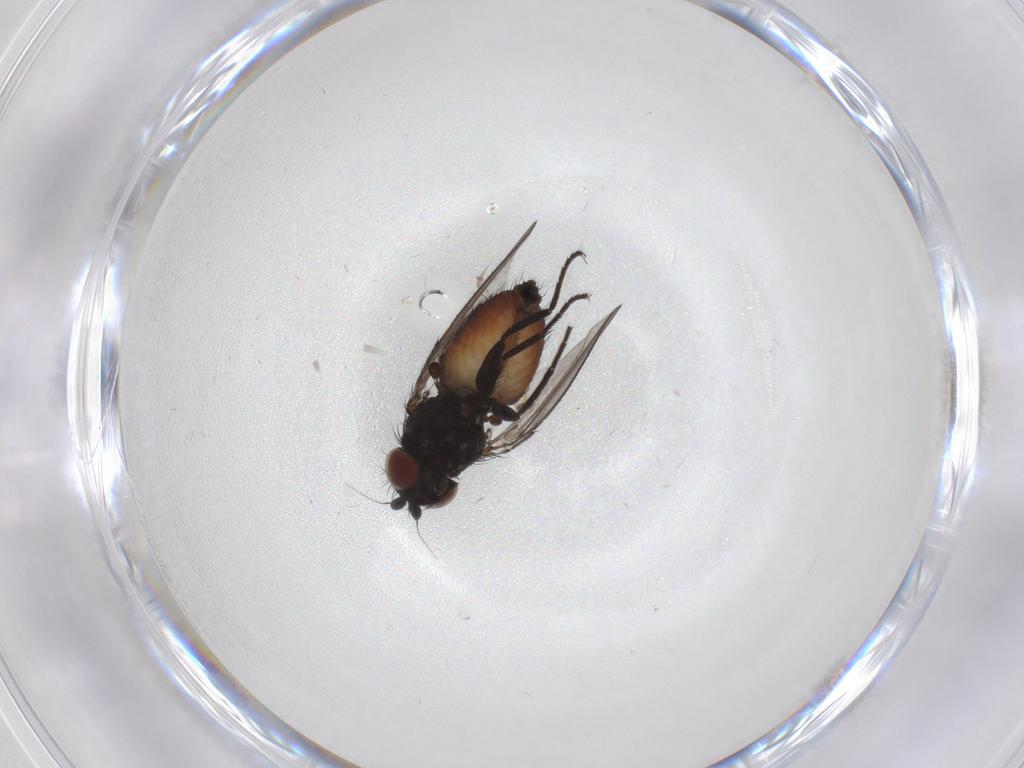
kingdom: Animalia
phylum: Arthropoda
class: Insecta
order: Diptera
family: Milichiidae
